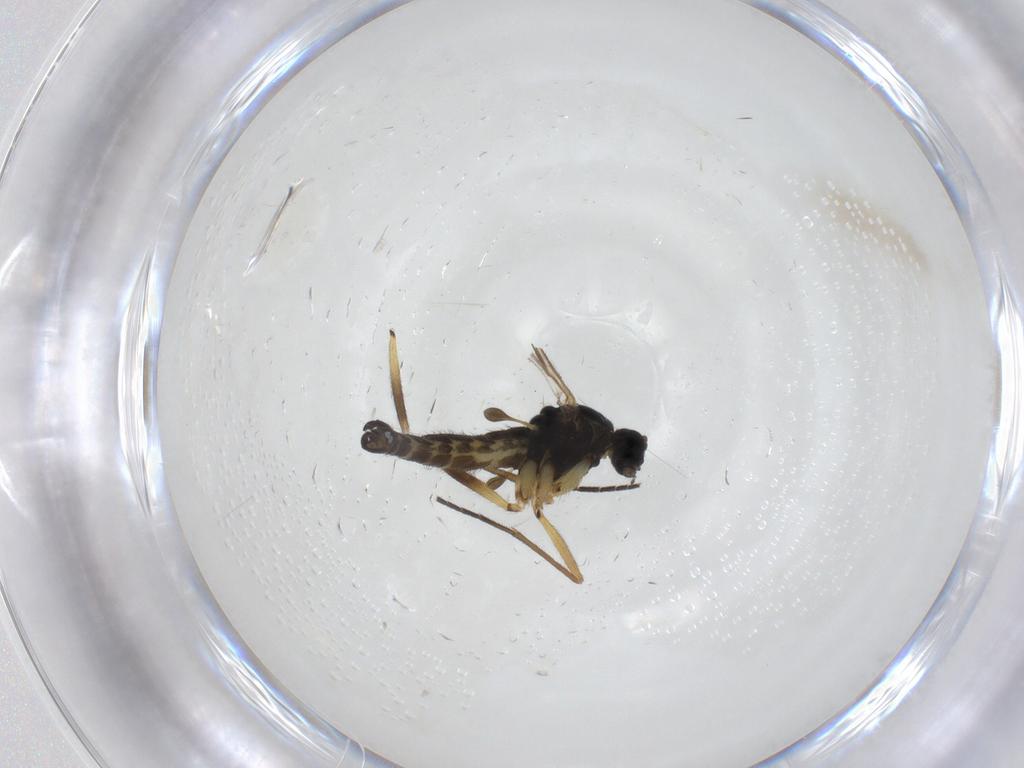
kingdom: Animalia
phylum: Arthropoda
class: Insecta
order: Diptera
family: Sciaridae
